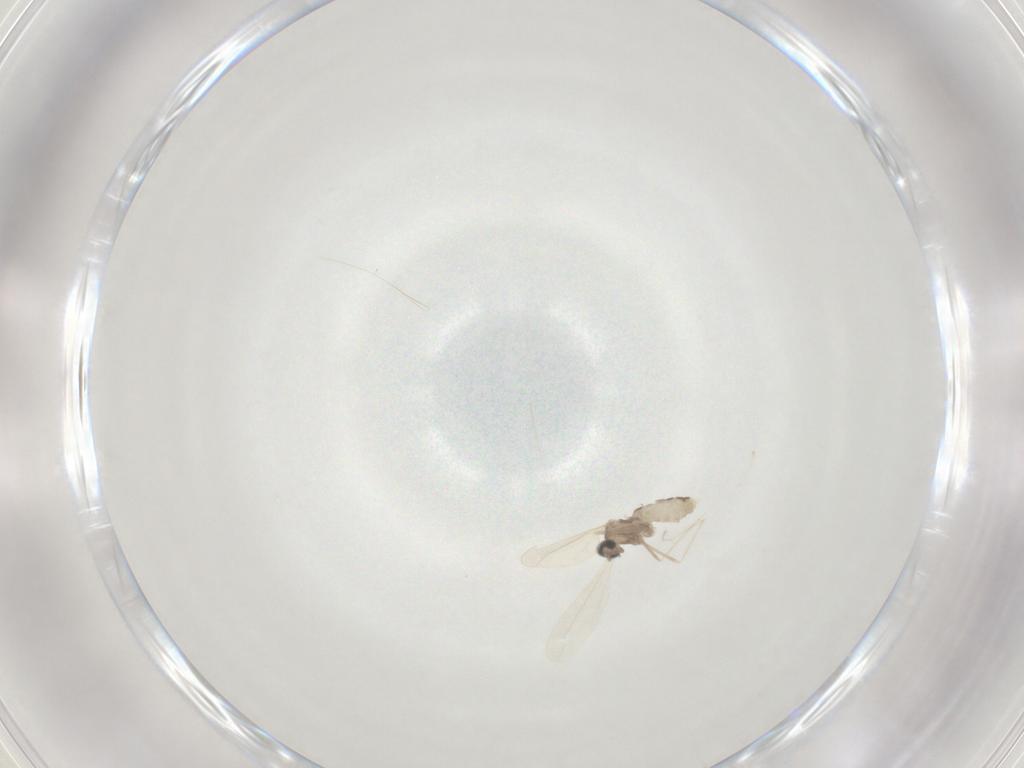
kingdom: Animalia
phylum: Arthropoda
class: Insecta
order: Diptera
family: Cecidomyiidae
